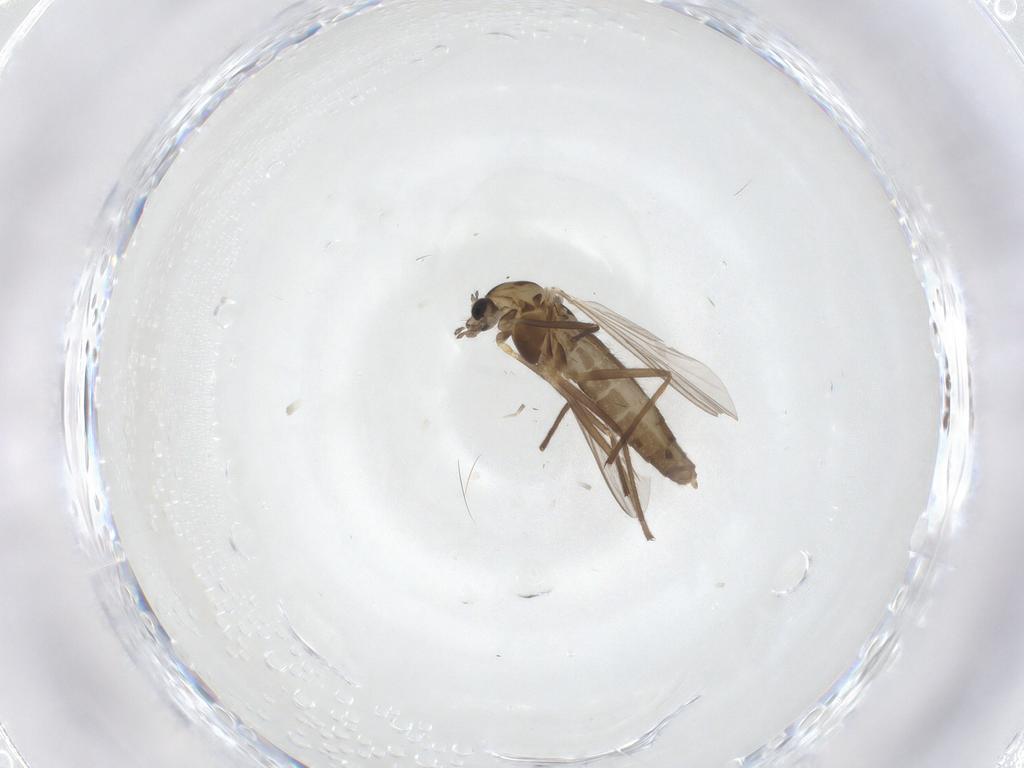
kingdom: Animalia
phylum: Arthropoda
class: Insecta
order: Diptera
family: Chironomidae
